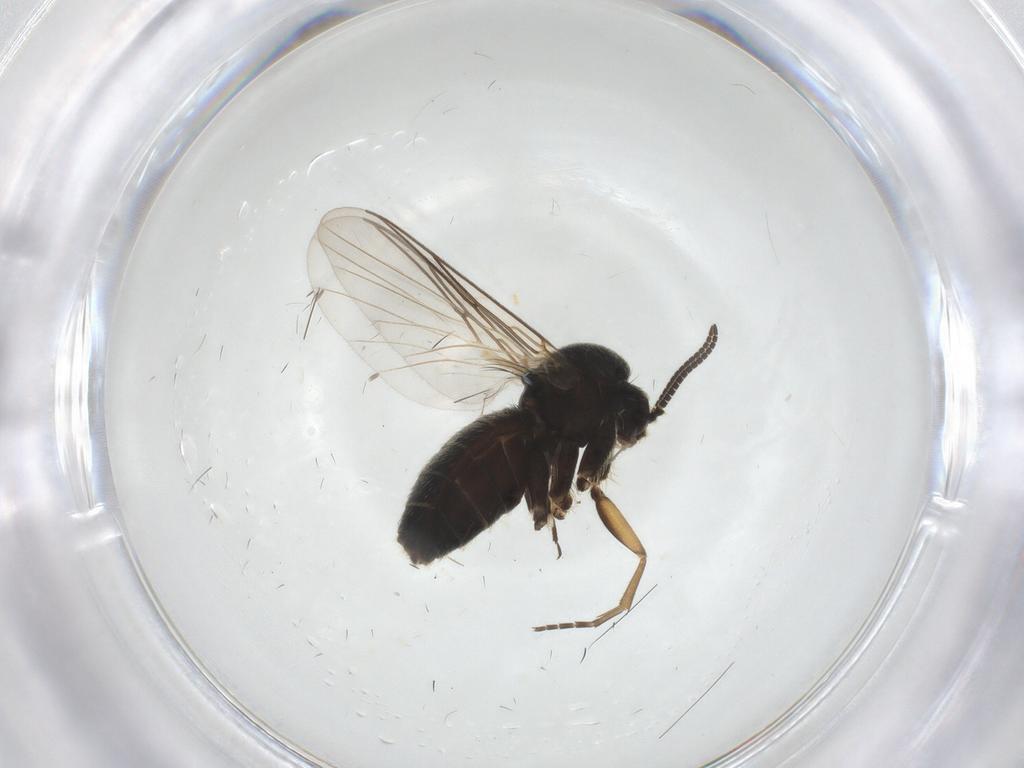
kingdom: Animalia
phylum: Arthropoda
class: Insecta
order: Diptera
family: Mycetophilidae
